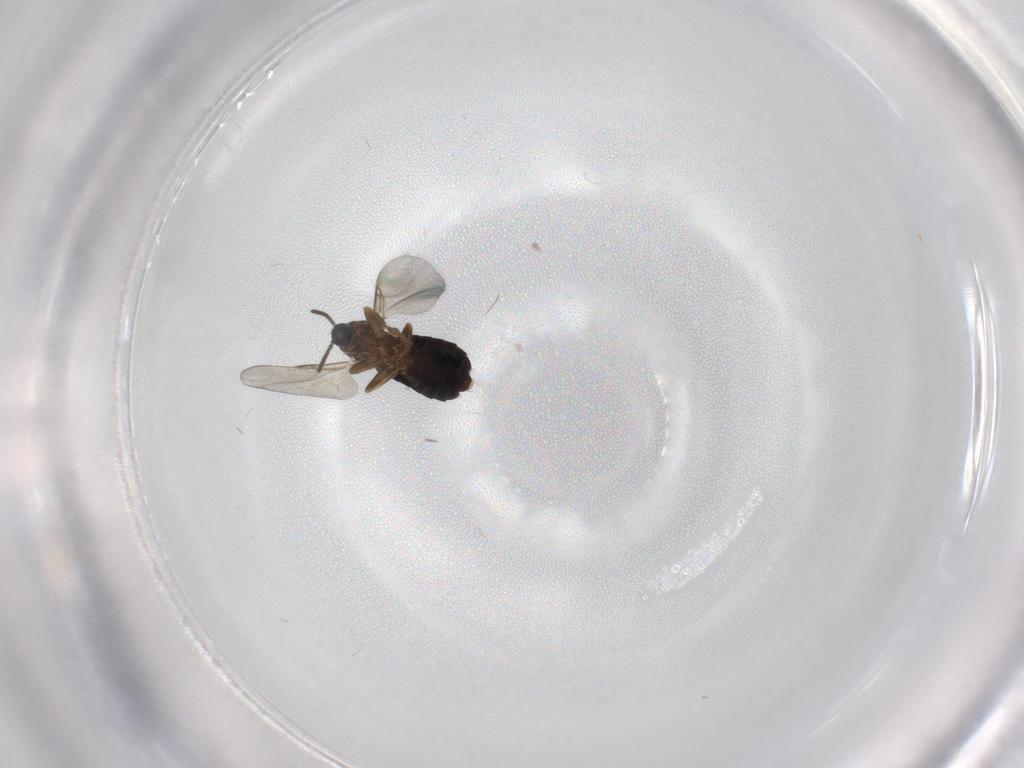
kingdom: Animalia
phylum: Arthropoda
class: Insecta
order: Diptera
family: Scatopsidae
